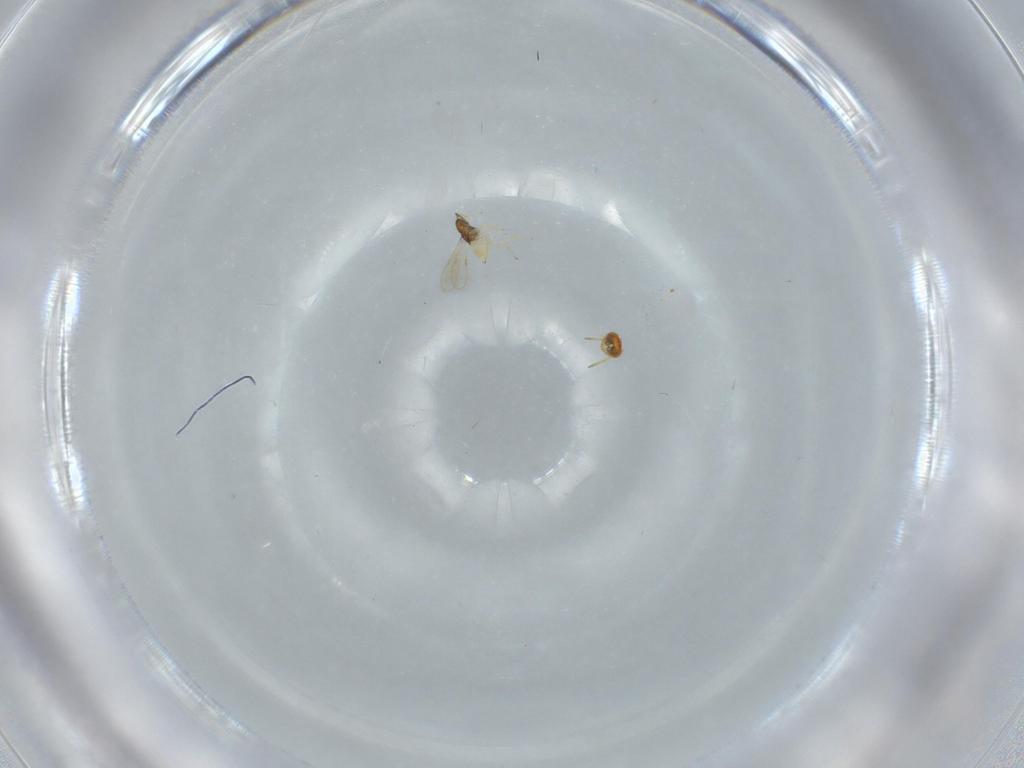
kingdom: Animalia
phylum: Arthropoda
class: Insecta
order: Hymenoptera
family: Aphelinidae
